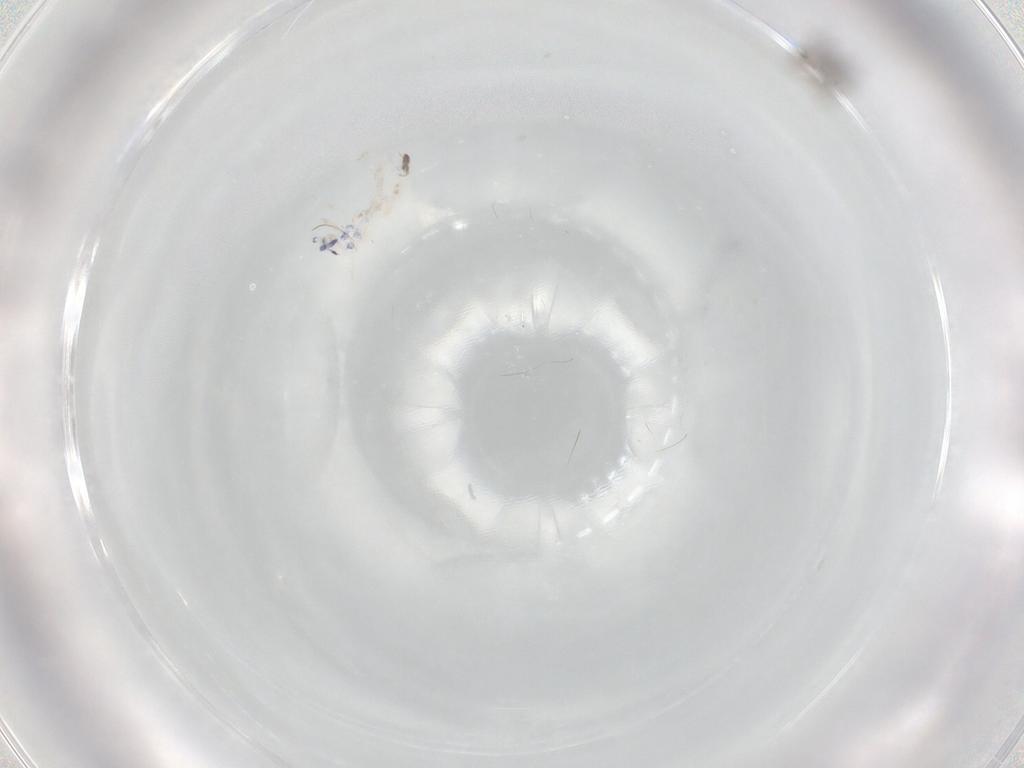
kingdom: Animalia
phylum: Arthropoda
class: Collembola
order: Entomobryomorpha
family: Entomobryidae
